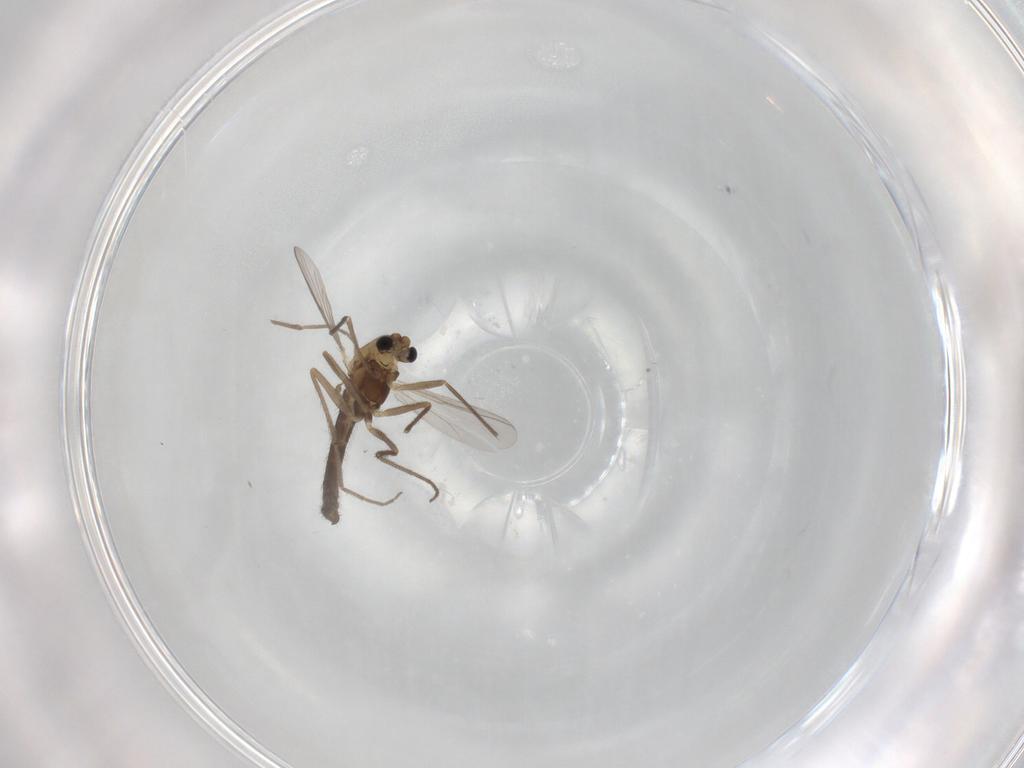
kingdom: Animalia
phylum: Arthropoda
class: Insecta
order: Diptera
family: Chironomidae
